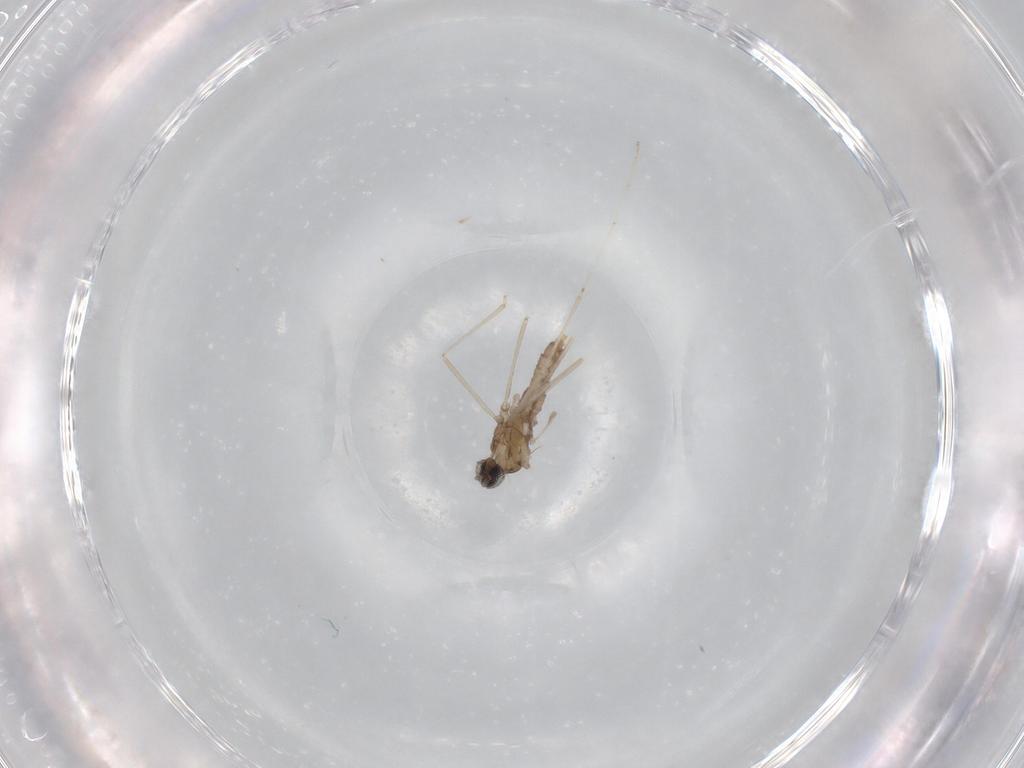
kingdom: Animalia
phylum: Arthropoda
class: Insecta
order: Diptera
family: Cecidomyiidae
